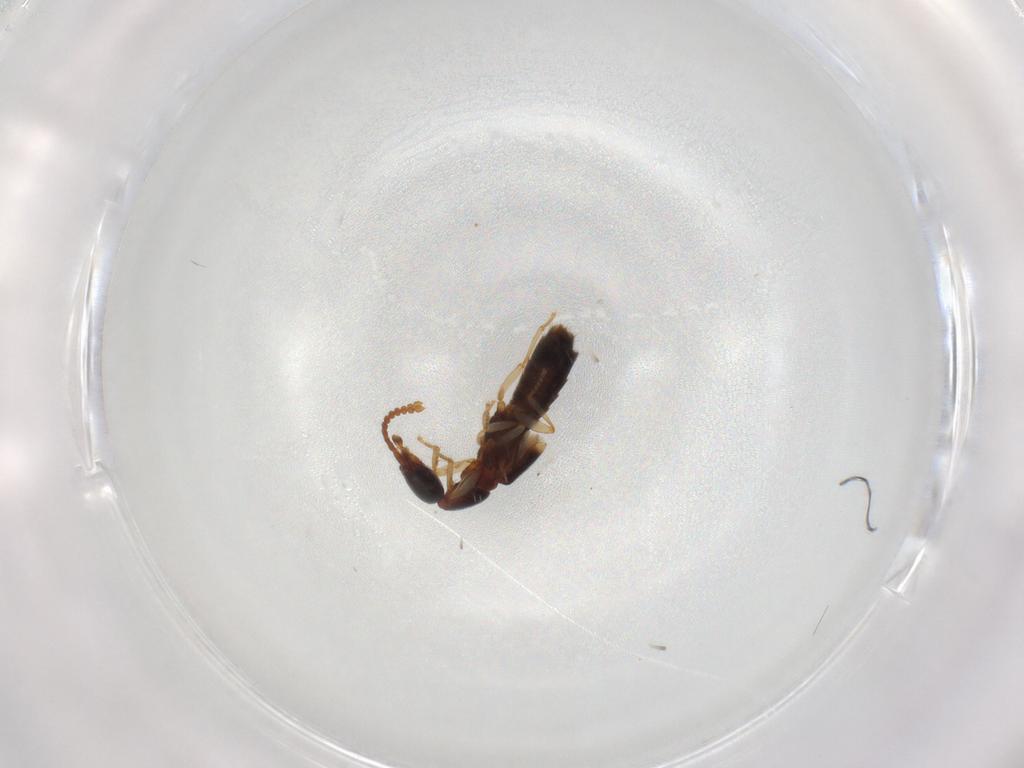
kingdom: Animalia
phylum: Arthropoda
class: Insecta
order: Coleoptera
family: Staphylinidae
